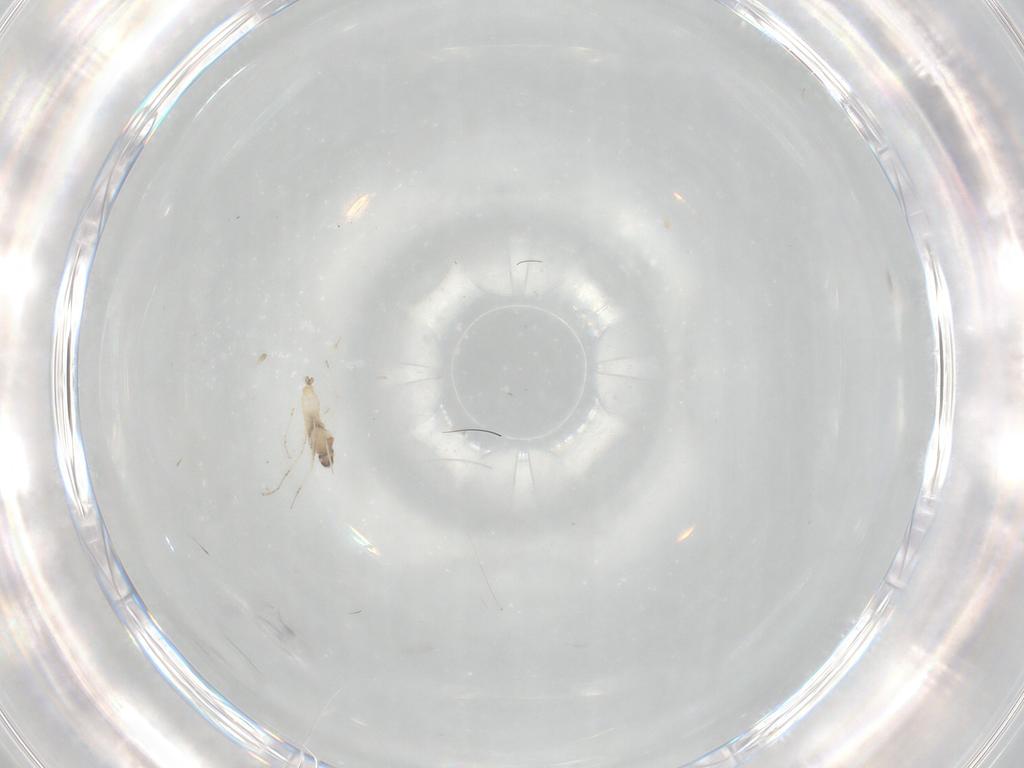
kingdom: Animalia
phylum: Arthropoda
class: Insecta
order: Diptera
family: Cecidomyiidae
